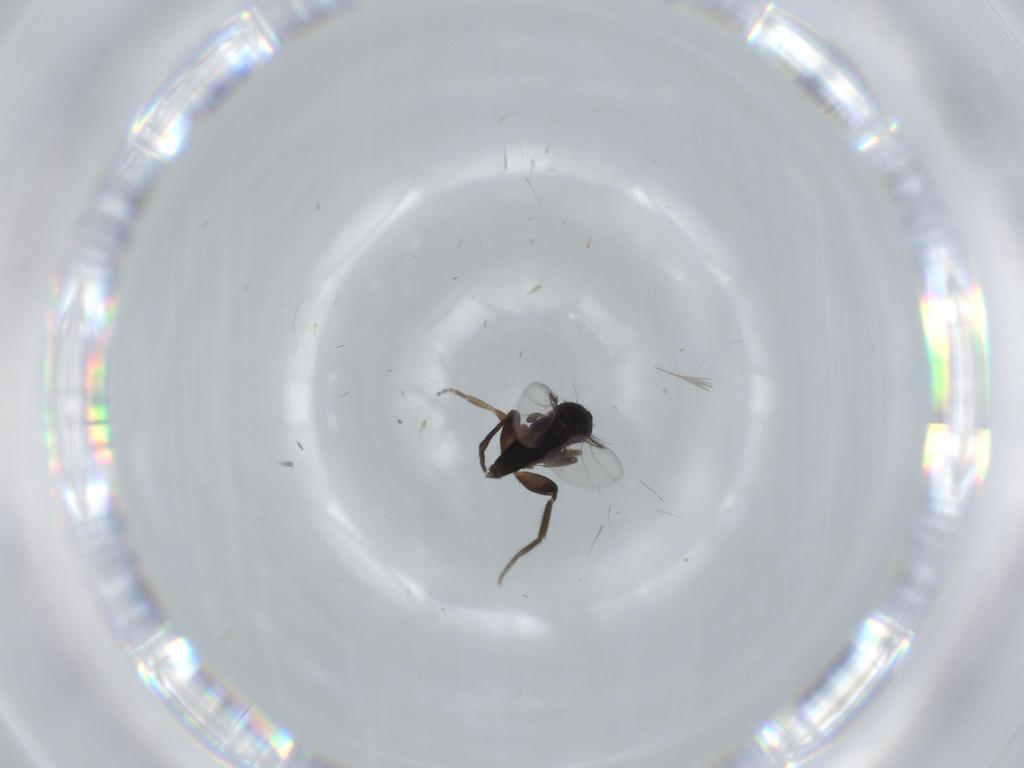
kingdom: Animalia
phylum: Arthropoda
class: Insecta
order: Diptera
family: Phoridae
